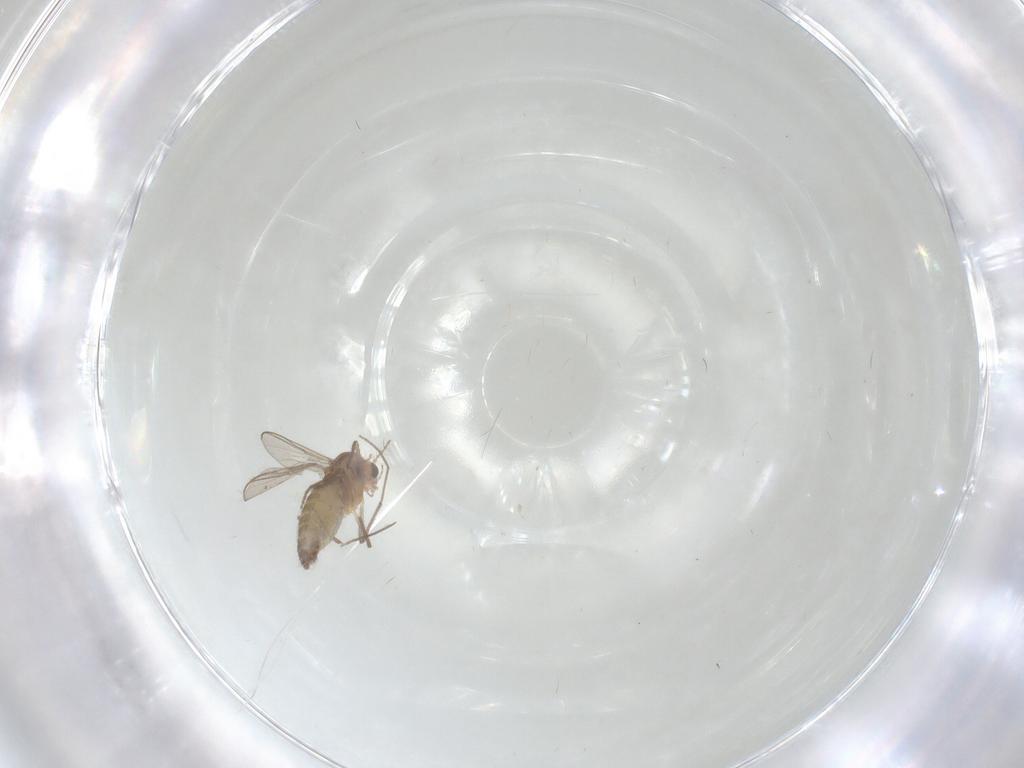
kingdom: Animalia
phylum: Arthropoda
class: Insecta
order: Diptera
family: Chironomidae
